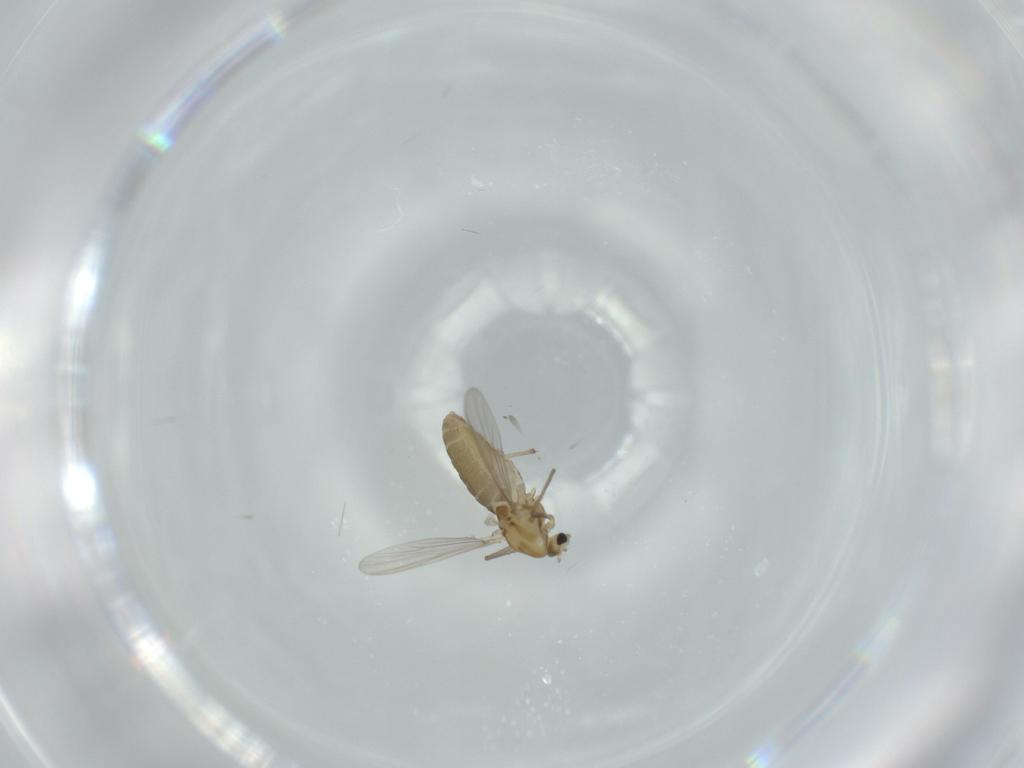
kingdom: Animalia
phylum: Arthropoda
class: Insecta
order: Diptera
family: Chironomidae
